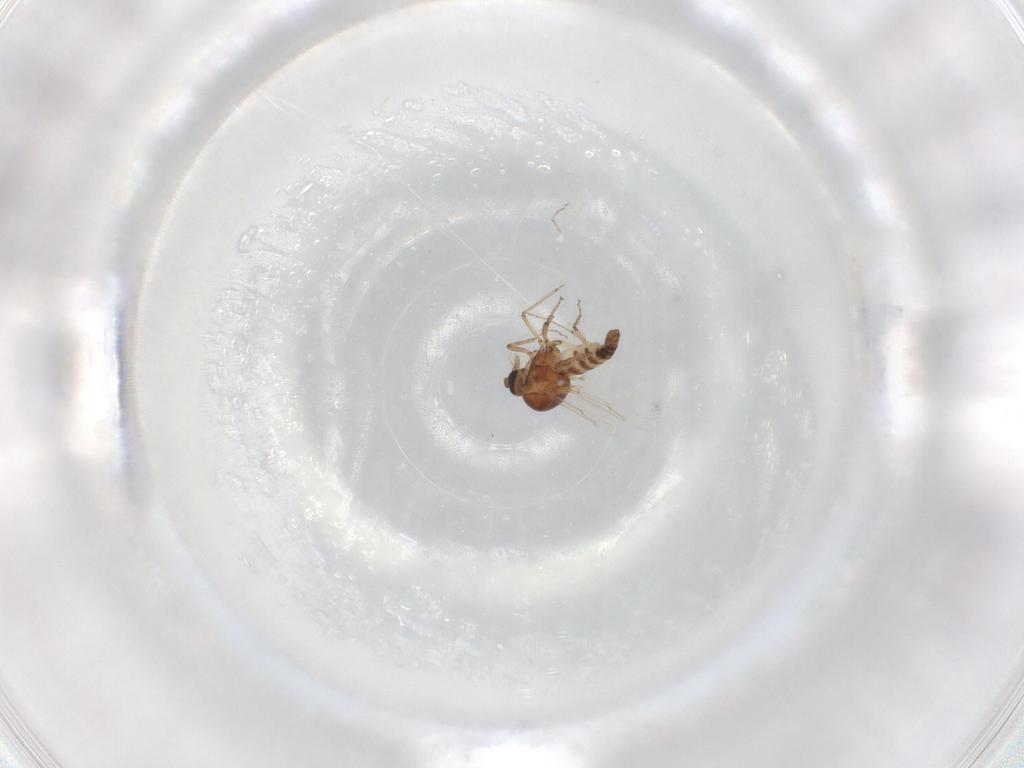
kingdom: Animalia
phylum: Arthropoda
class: Insecta
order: Diptera
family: Ceratopogonidae
